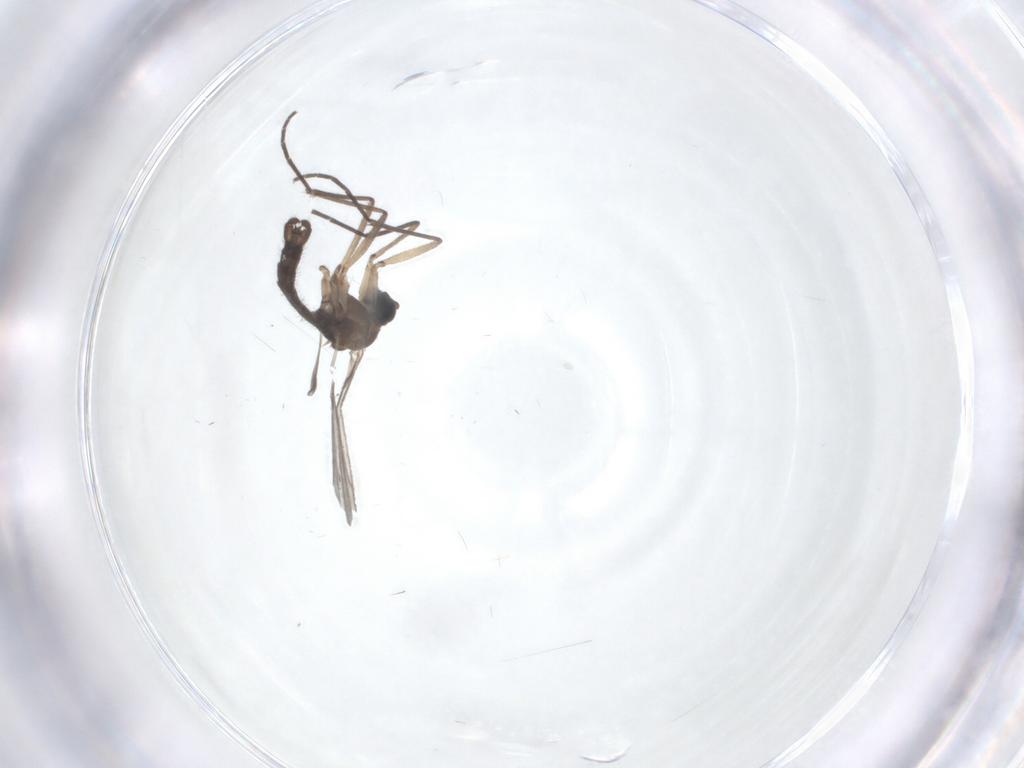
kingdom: Animalia
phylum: Arthropoda
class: Insecta
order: Diptera
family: Sciaridae
